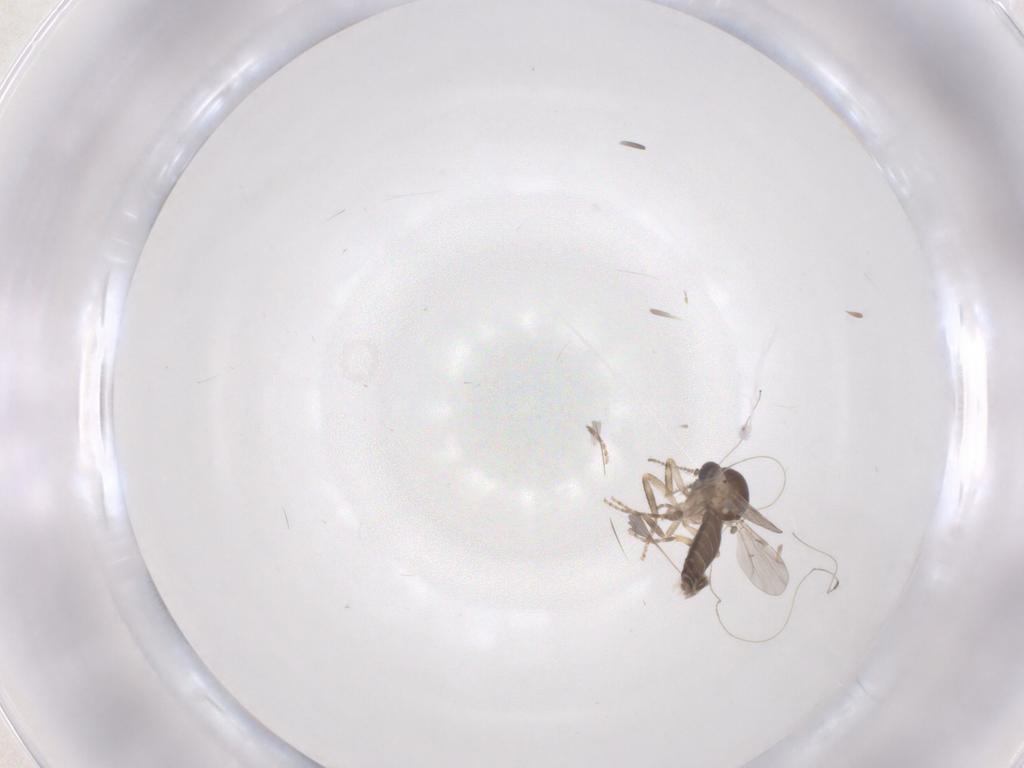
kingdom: Animalia
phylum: Arthropoda
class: Insecta
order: Diptera
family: Ceratopogonidae
